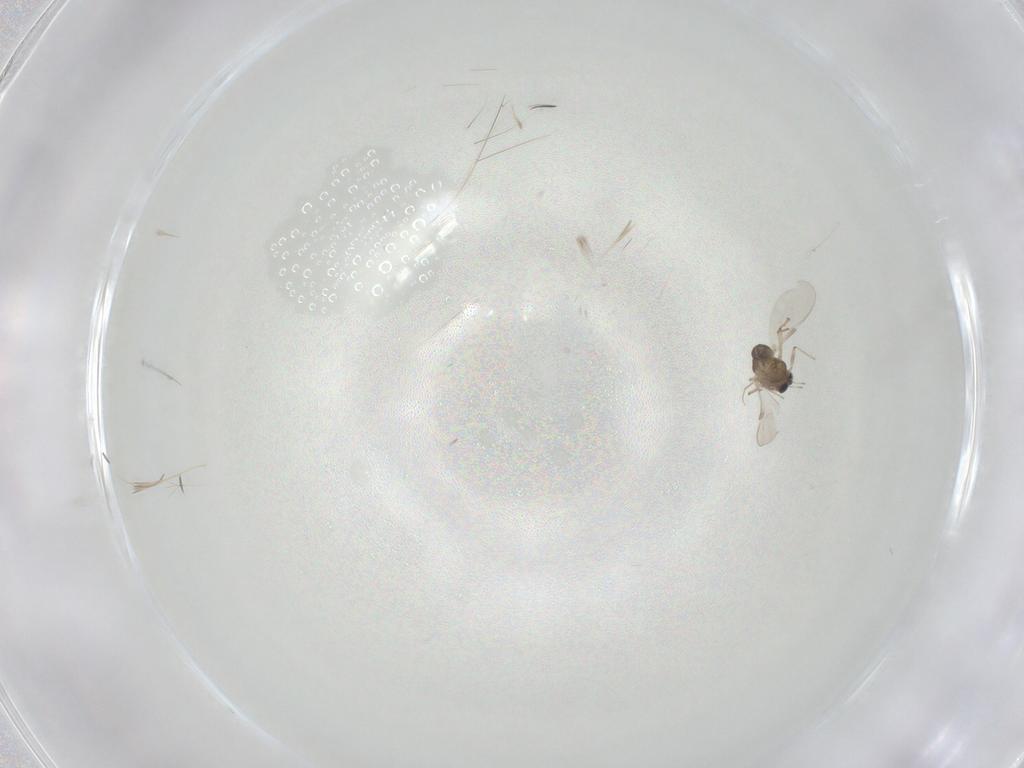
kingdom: Animalia
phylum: Arthropoda
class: Insecta
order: Diptera
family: Chironomidae
